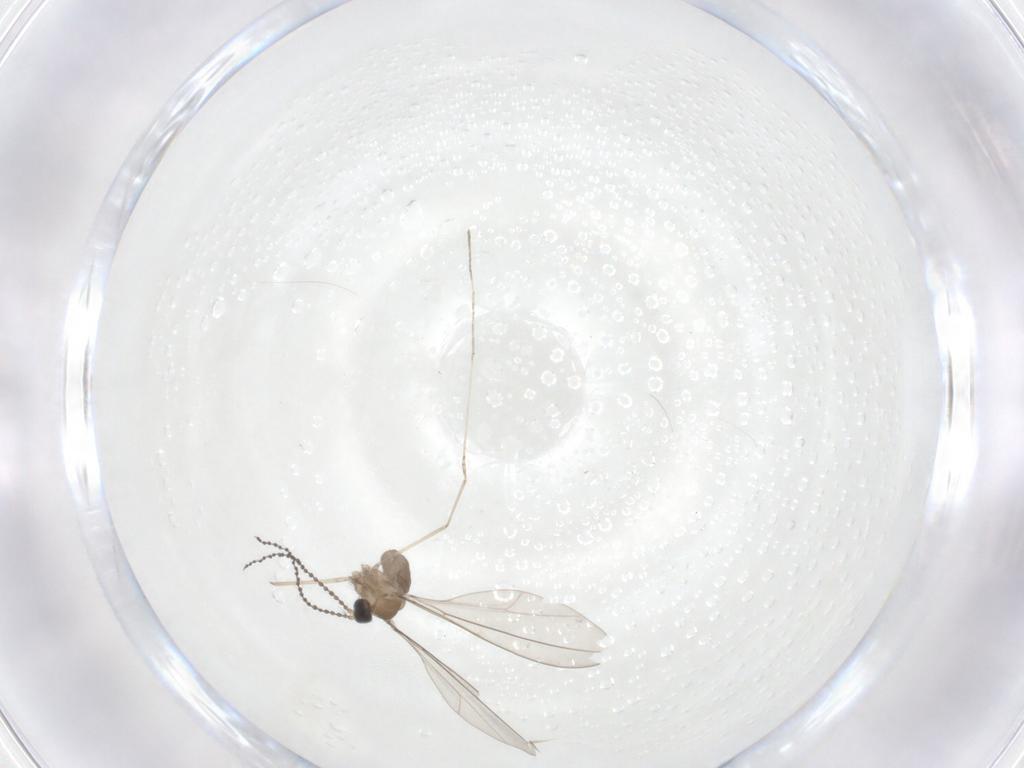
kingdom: Animalia
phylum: Arthropoda
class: Insecta
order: Diptera
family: Cecidomyiidae
